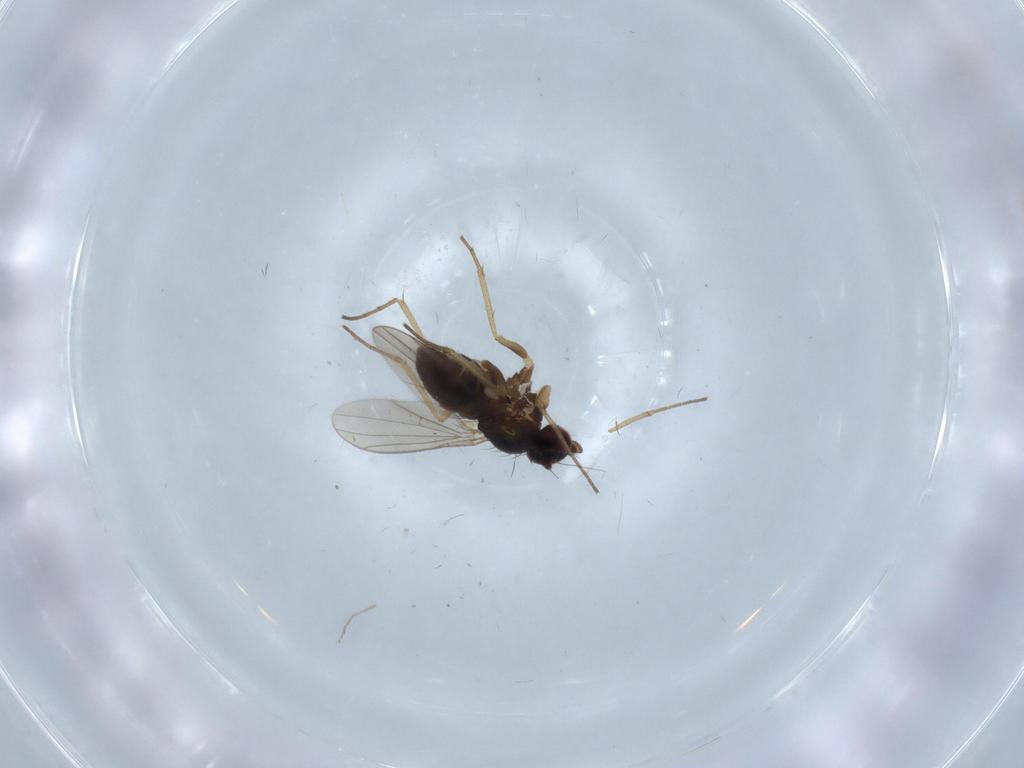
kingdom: Animalia
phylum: Arthropoda
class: Insecta
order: Diptera
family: Dolichopodidae
